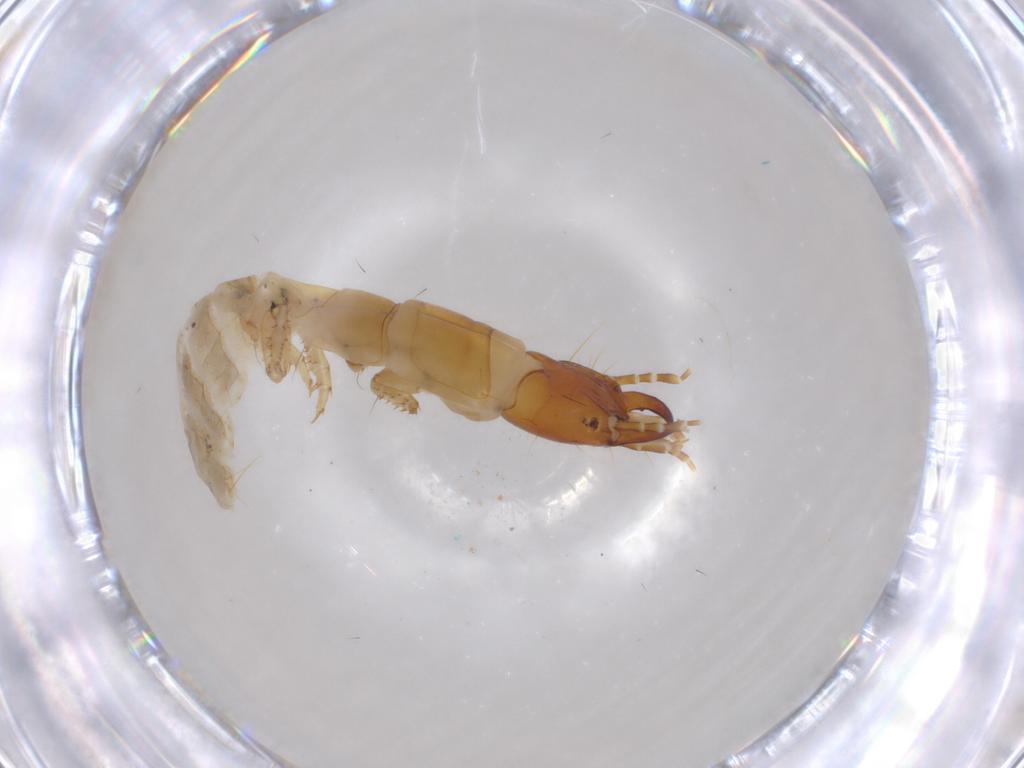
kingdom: Animalia
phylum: Arthropoda
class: Insecta
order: Coleoptera
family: Carabidae
